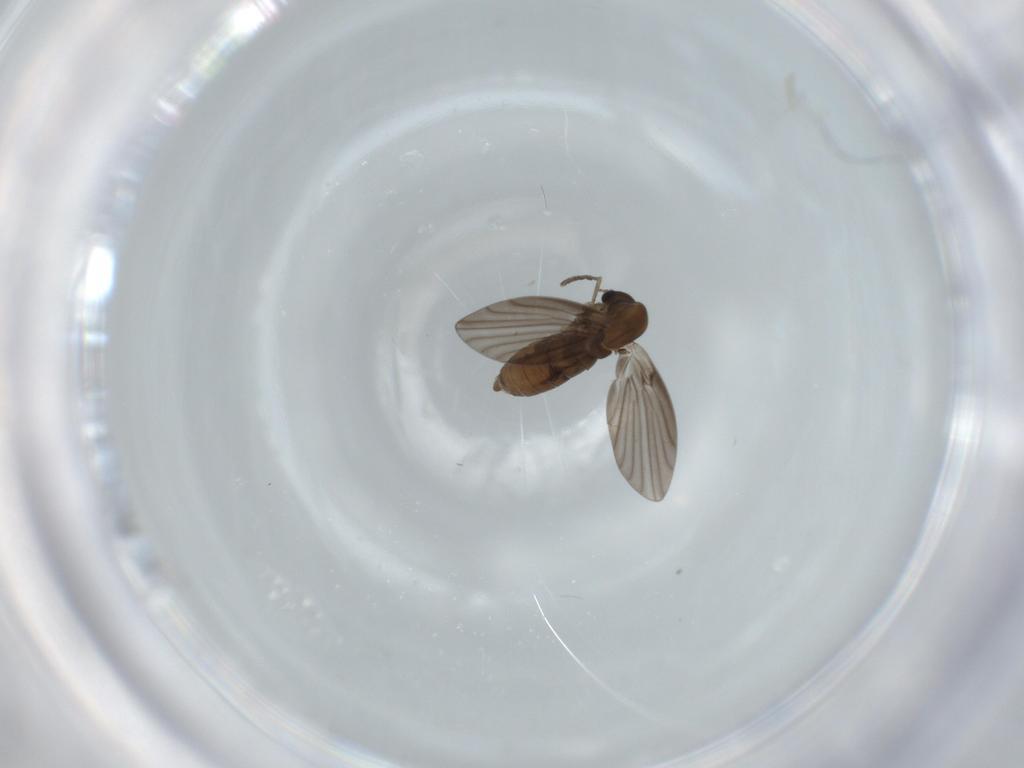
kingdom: Animalia
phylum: Arthropoda
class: Insecta
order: Diptera
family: Psychodidae
